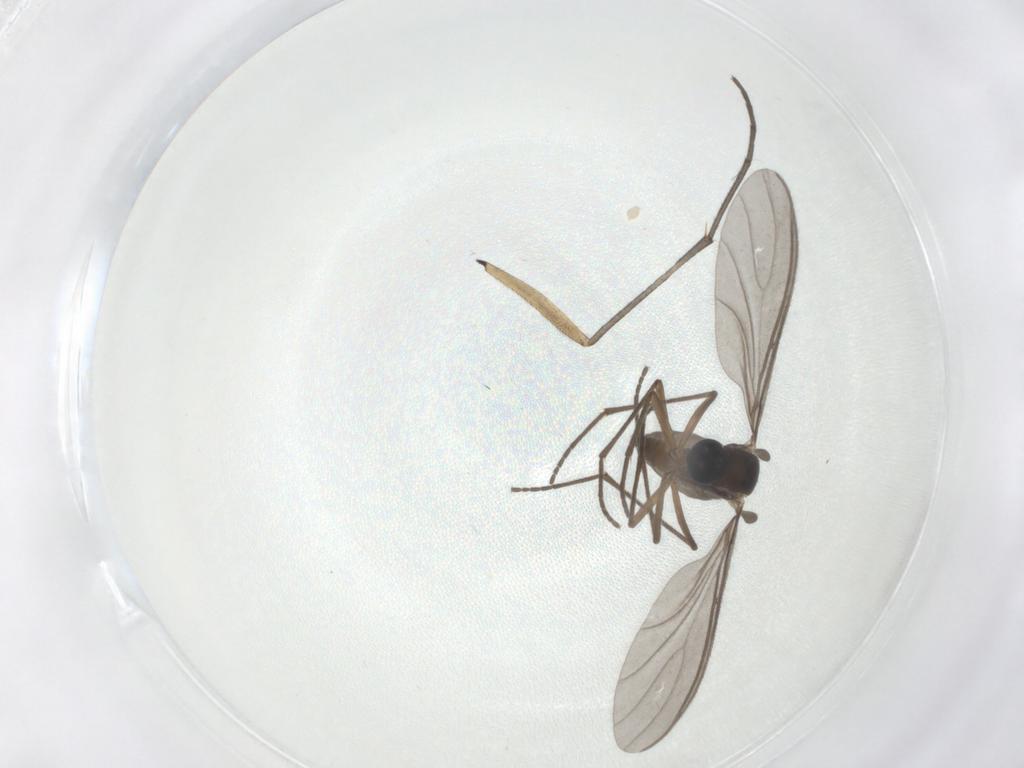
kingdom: Animalia
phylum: Arthropoda
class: Insecta
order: Diptera
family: Sciaridae
